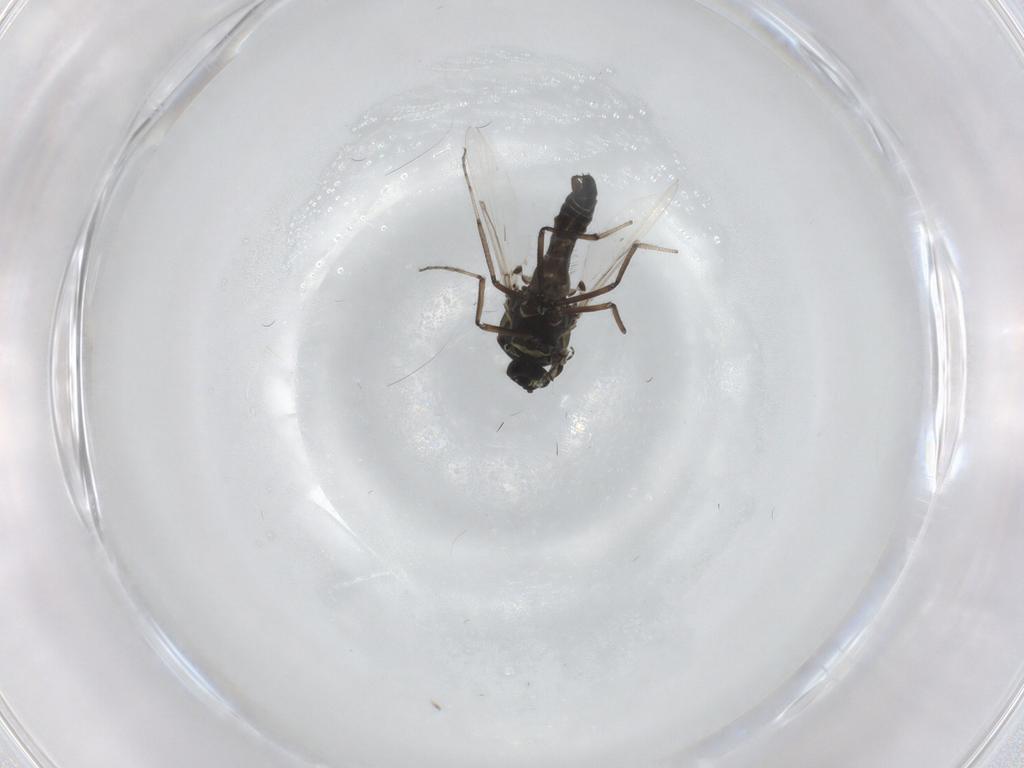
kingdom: Animalia
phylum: Arthropoda
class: Insecta
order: Diptera
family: Ceratopogonidae
